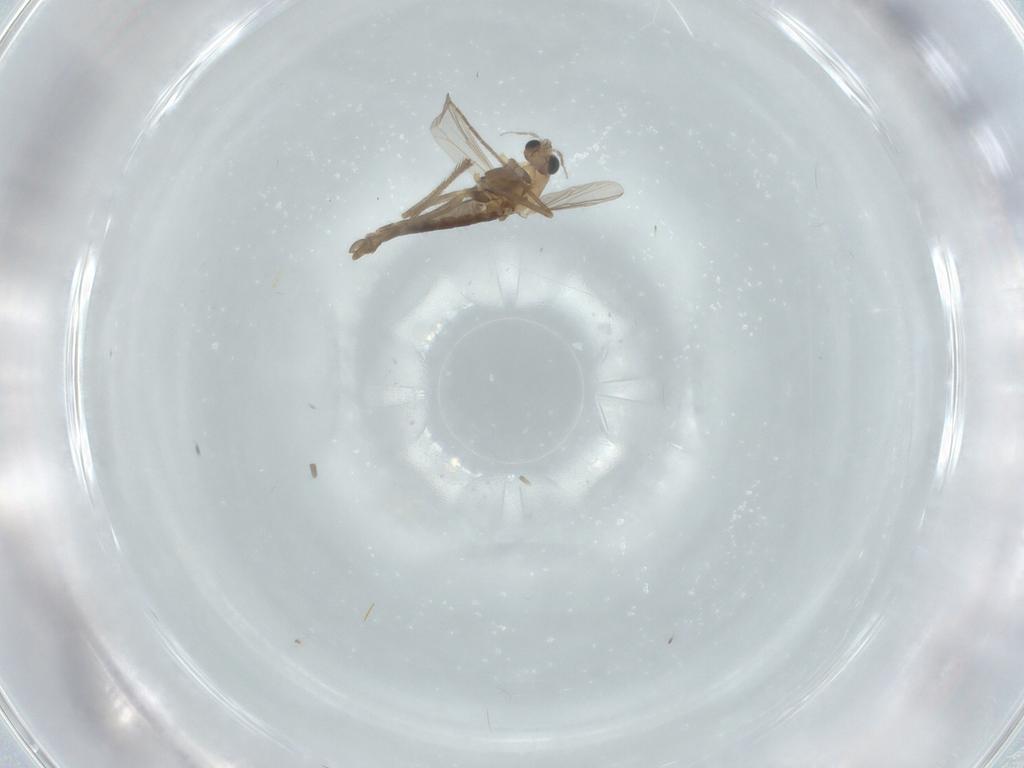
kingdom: Animalia
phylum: Arthropoda
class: Insecta
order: Diptera
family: Chironomidae
